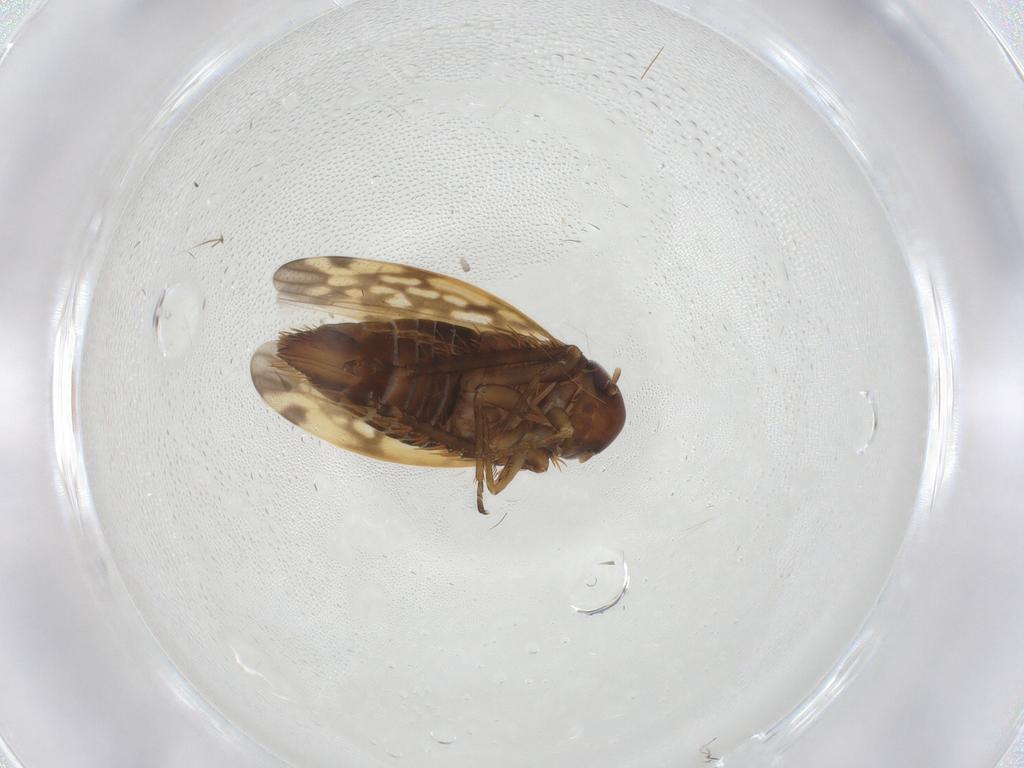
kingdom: Animalia
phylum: Arthropoda
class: Insecta
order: Hemiptera
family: Cicadellidae
